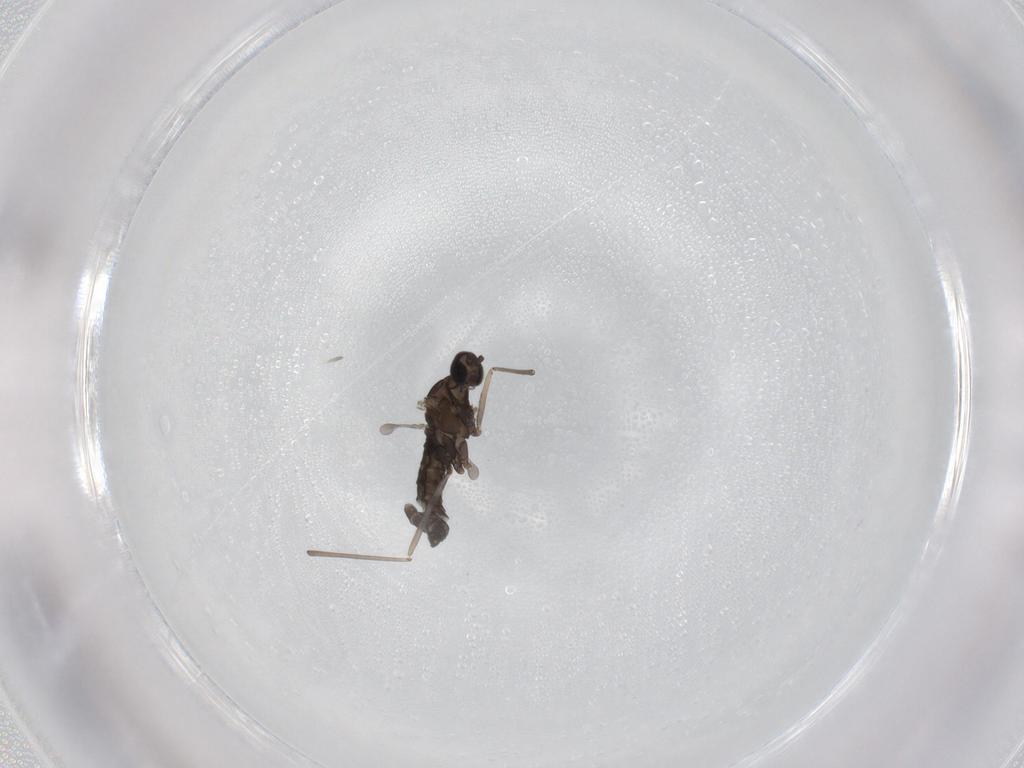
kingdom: Animalia
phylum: Arthropoda
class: Insecta
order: Diptera
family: Cecidomyiidae
